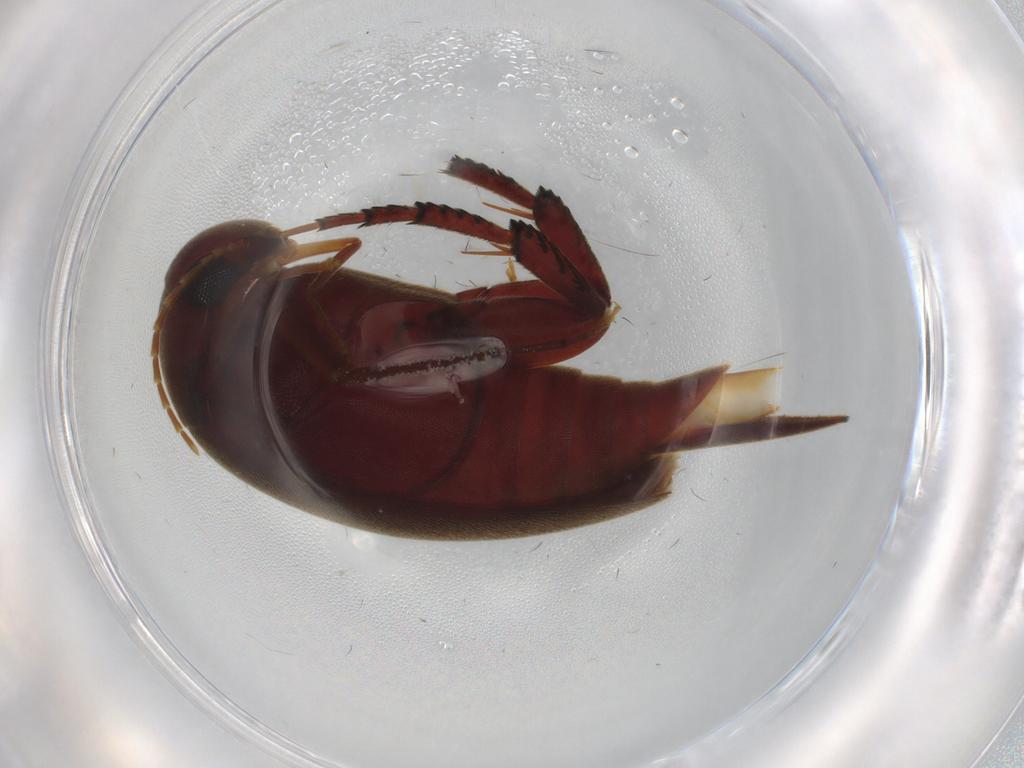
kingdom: Animalia
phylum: Arthropoda
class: Insecta
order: Coleoptera
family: Mordellidae
